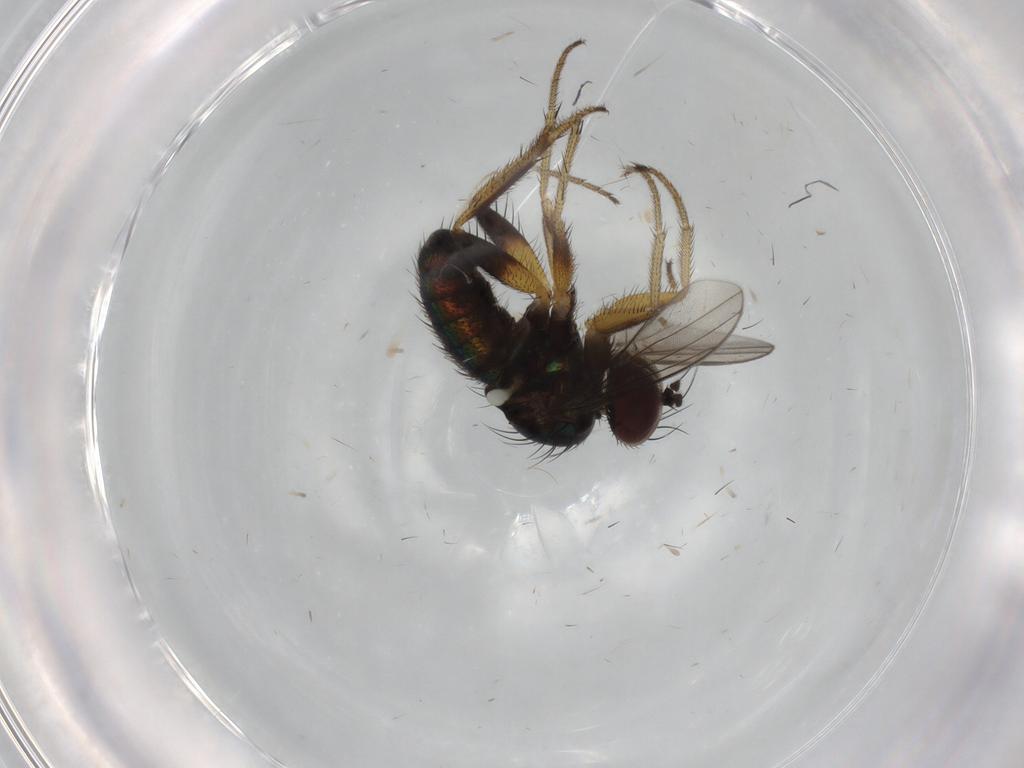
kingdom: Animalia
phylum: Arthropoda
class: Insecta
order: Diptera
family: Dolichopodidae
